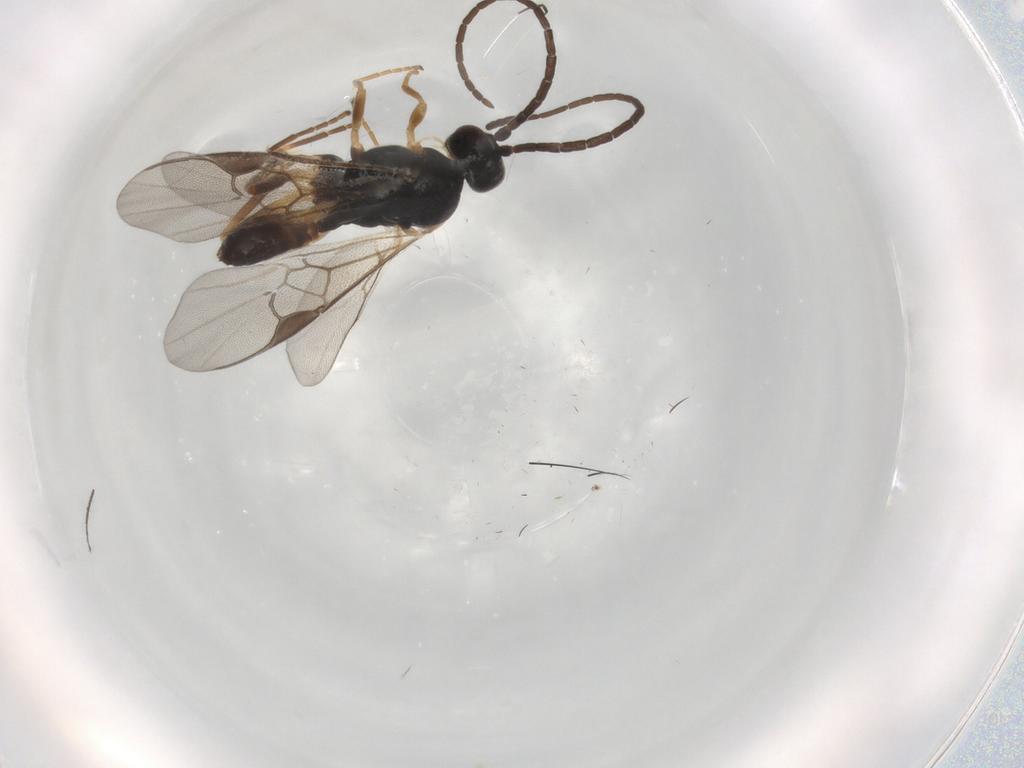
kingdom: Animalia
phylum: Arthropoda
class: Insecta
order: Hymenoptera
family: Braconidae
